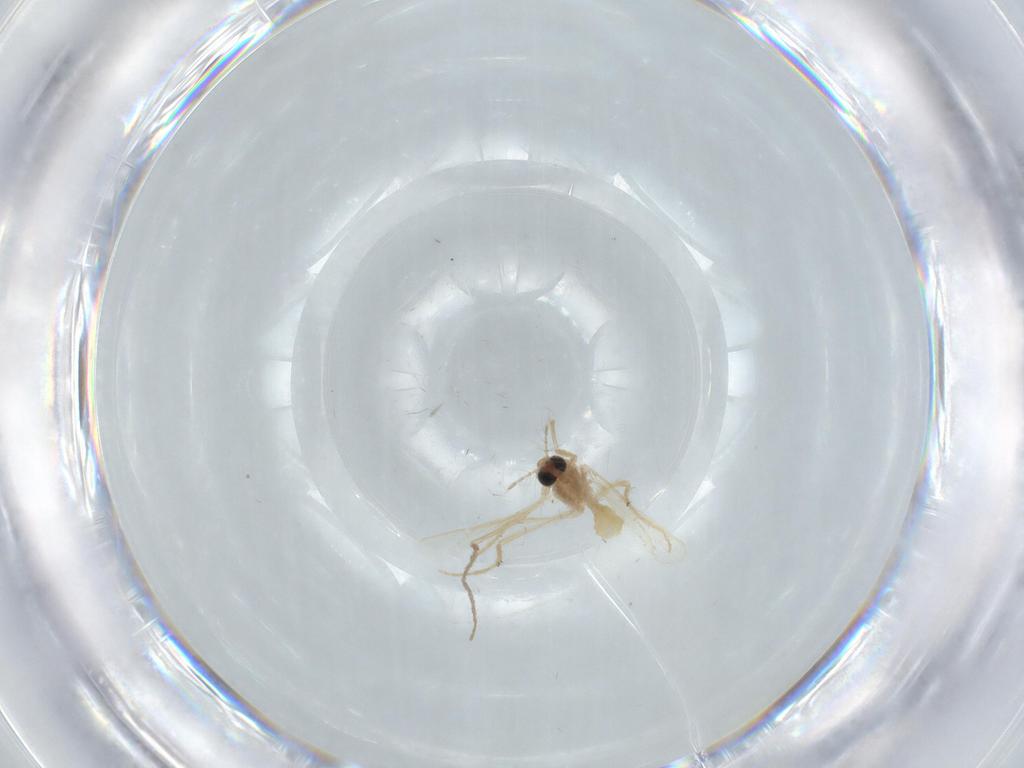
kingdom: Animalia
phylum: Arthropoda
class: Insecta
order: Diptera
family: Chironomidae
